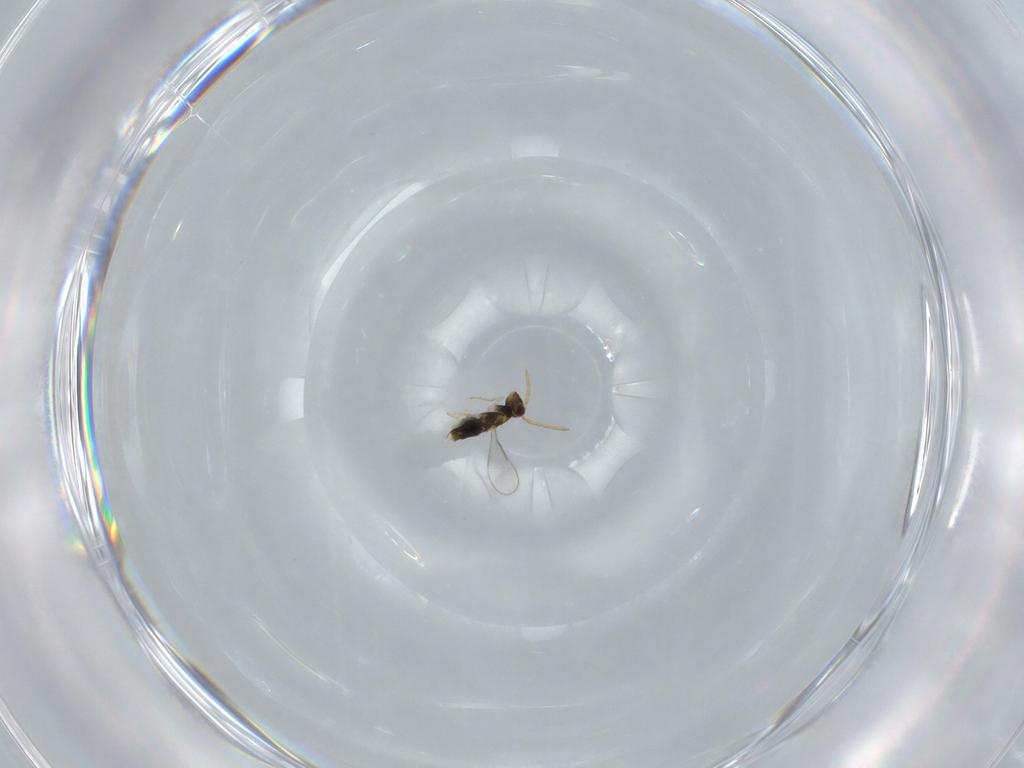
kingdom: Animalia
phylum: Arthropoda
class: Insecta
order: Hymenoptera
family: Aphelinidae
